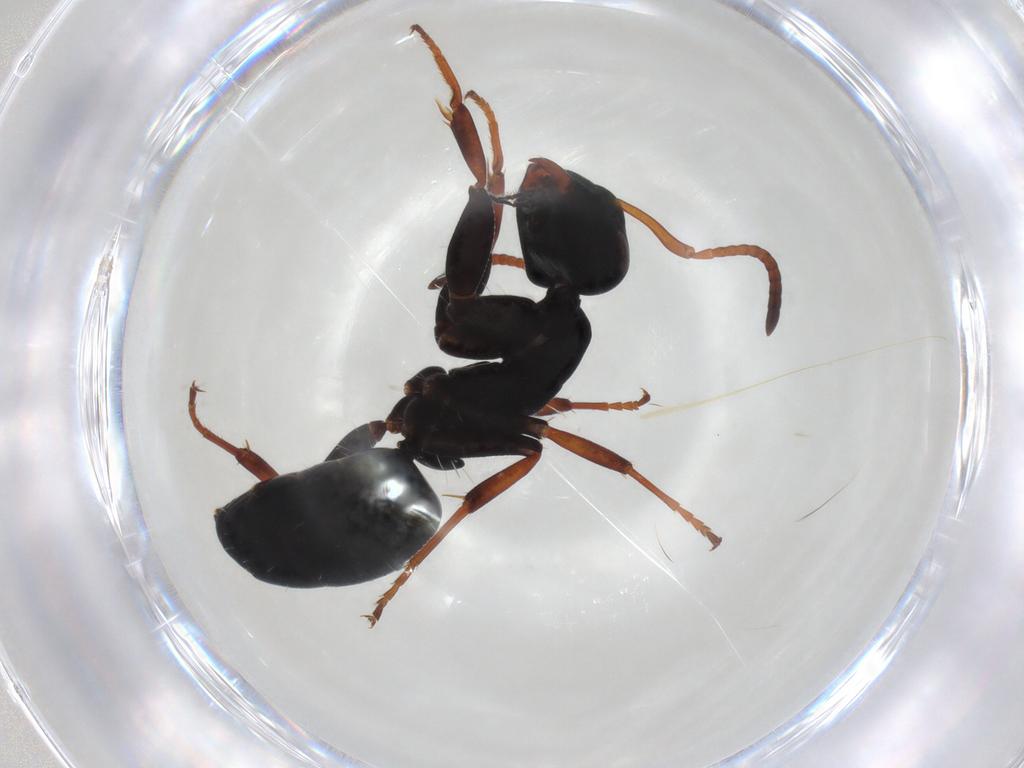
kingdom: Animalia
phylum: Arthropoda
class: Insecta
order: Hymenoptera
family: Formicidae
